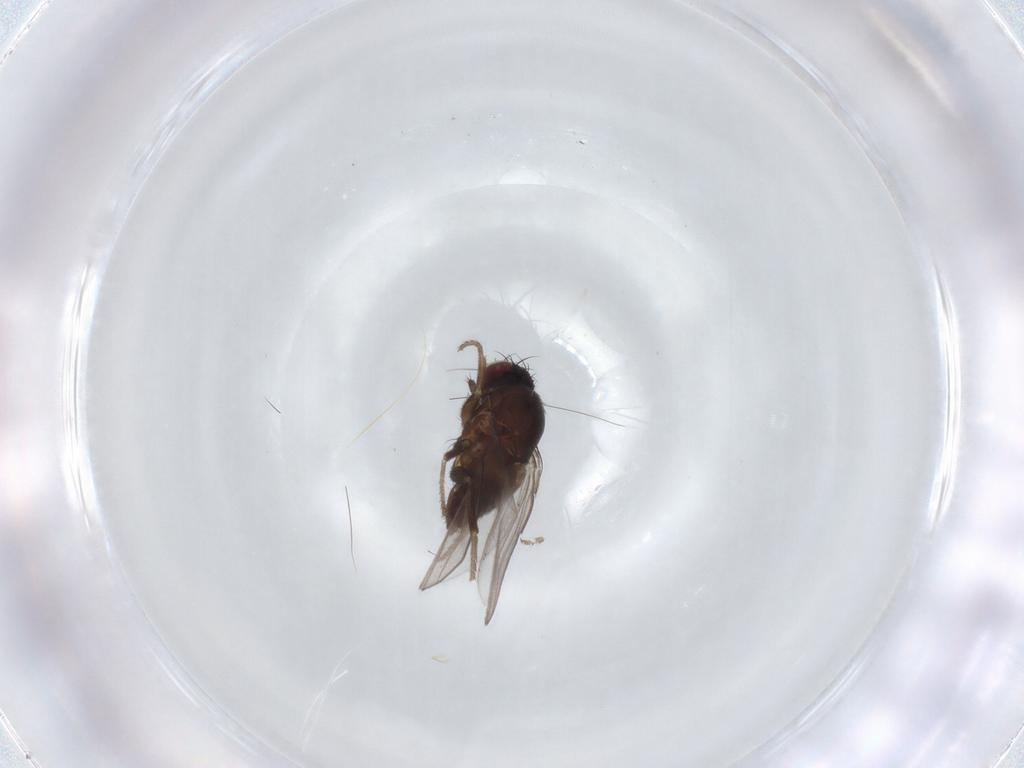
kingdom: Animalia
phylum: Arthropoda
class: Insecta
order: Diptera
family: Milichiidae
